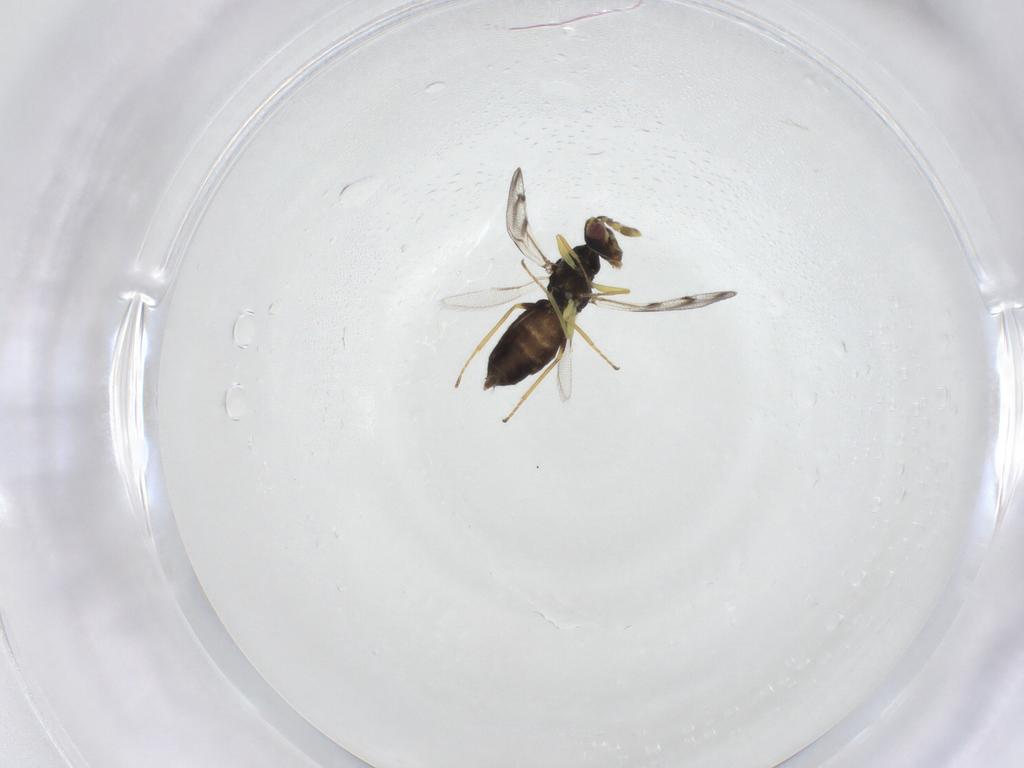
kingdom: Animalia
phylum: Arthropoda
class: Insecta
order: Hymenoptera
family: Eulophidae
